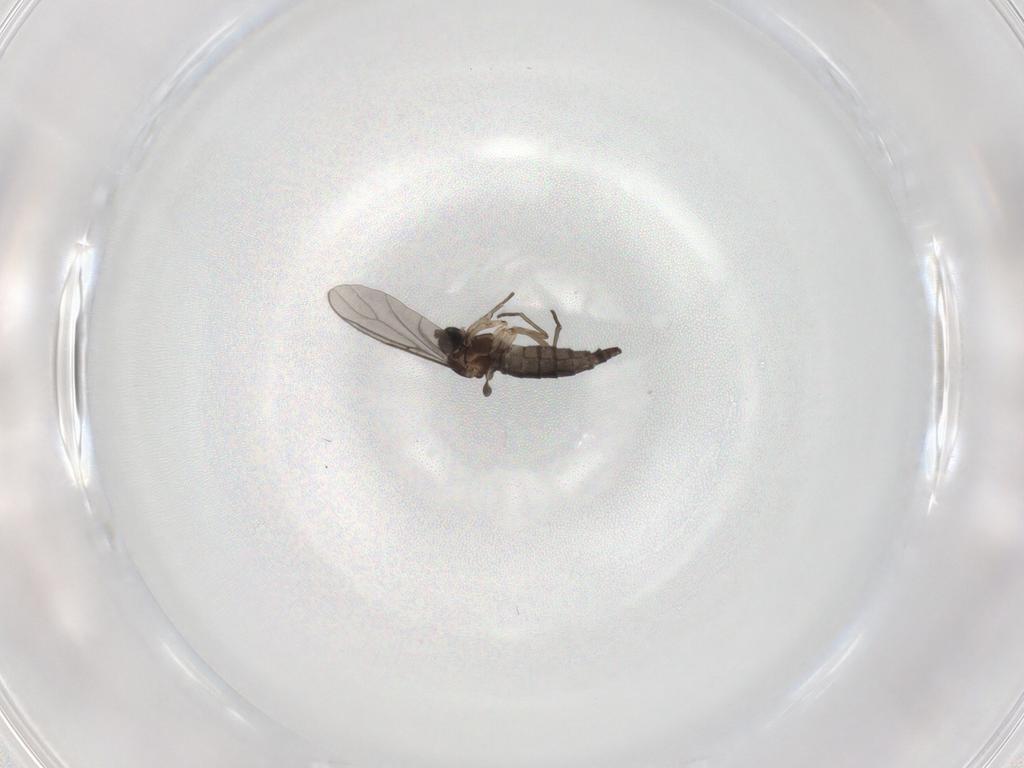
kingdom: Animalia
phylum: Arthropoda
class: Insecta
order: Diptera
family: Sciaridae
